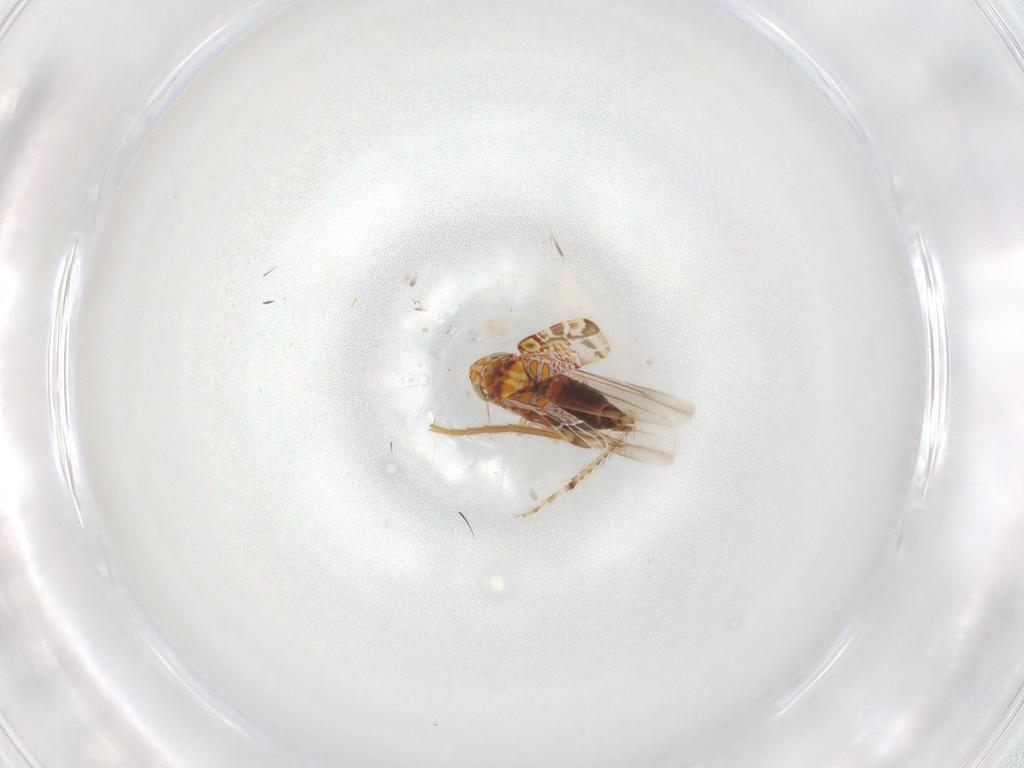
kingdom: Animalia
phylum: Arthropoda
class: Insecta
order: Hemiptera
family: Cicadellidae
